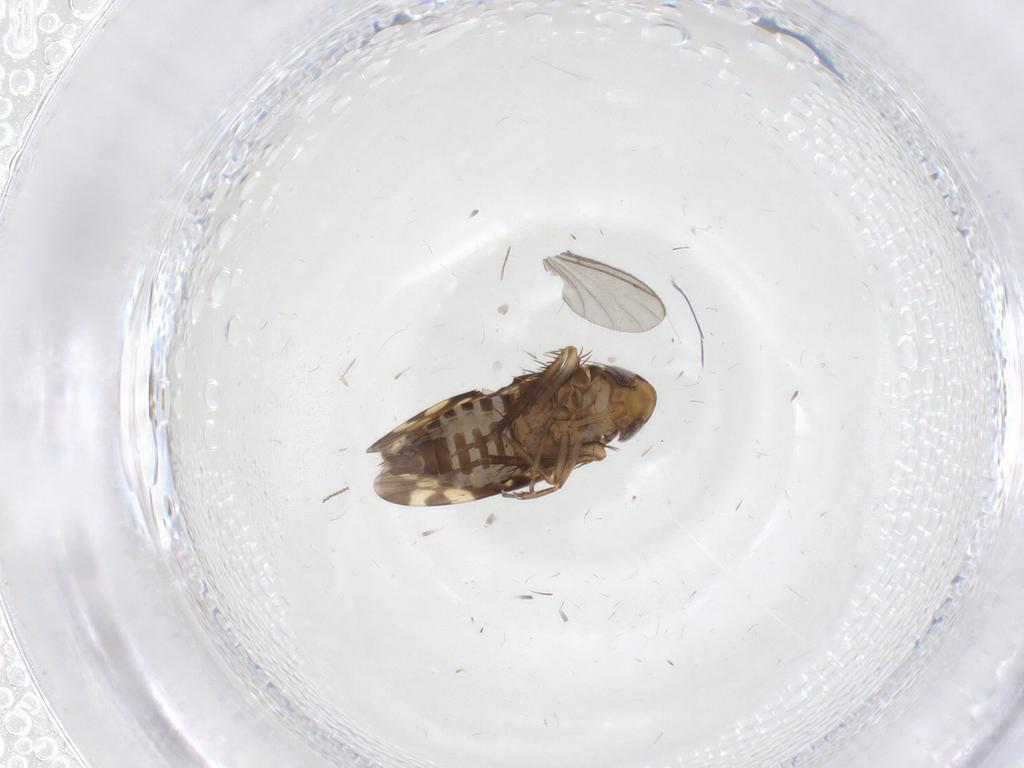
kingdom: Animalia
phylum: Arthropoda
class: Insecta
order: Hemiptera
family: Cicadellidae
